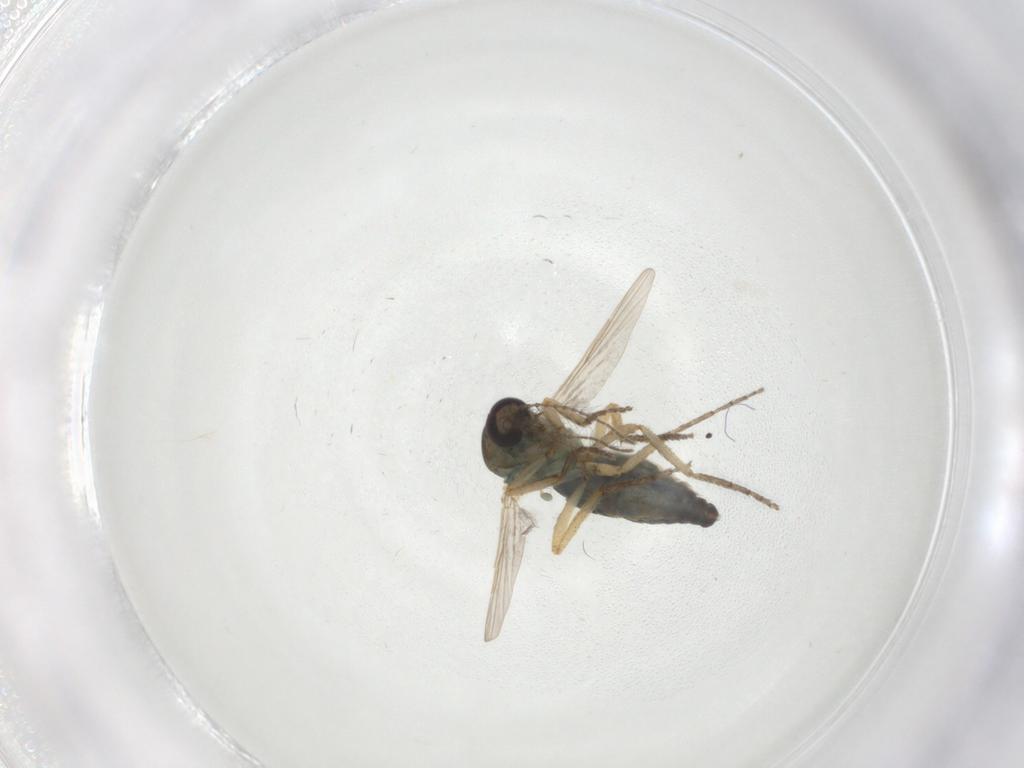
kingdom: Animalia
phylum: Arthropoda
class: Insecta
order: Diptera
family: Ceratopogonidae
